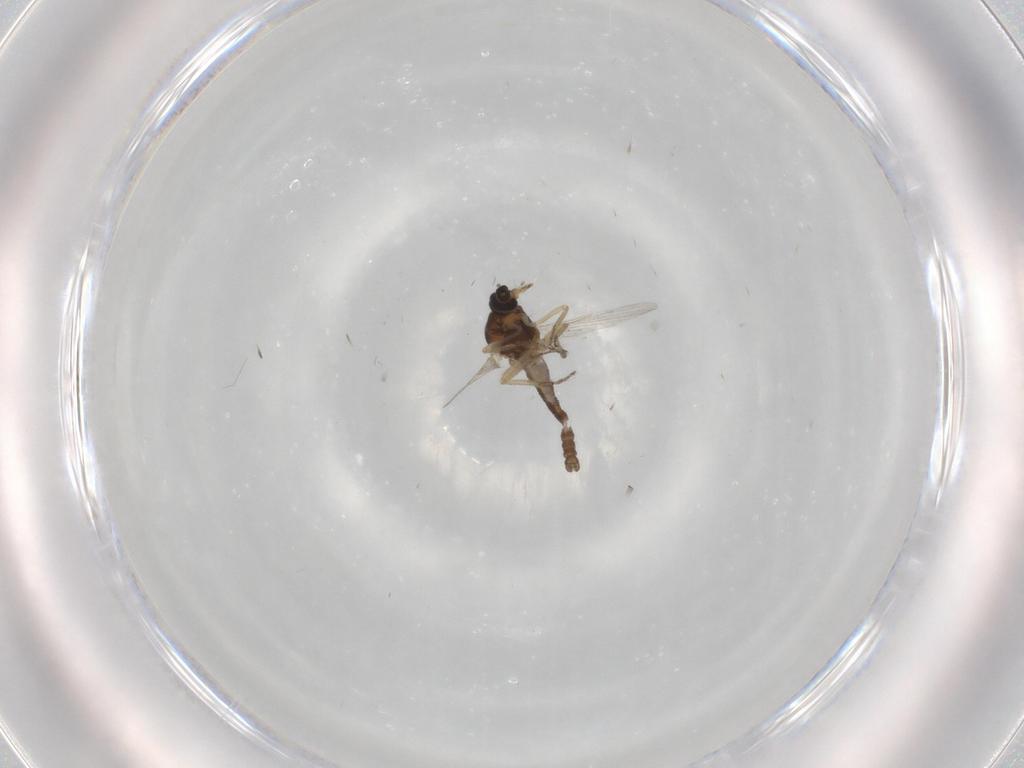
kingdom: Animalia
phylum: Arthropoda
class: Insecta
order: Diptera
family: Ceratopogonidae
